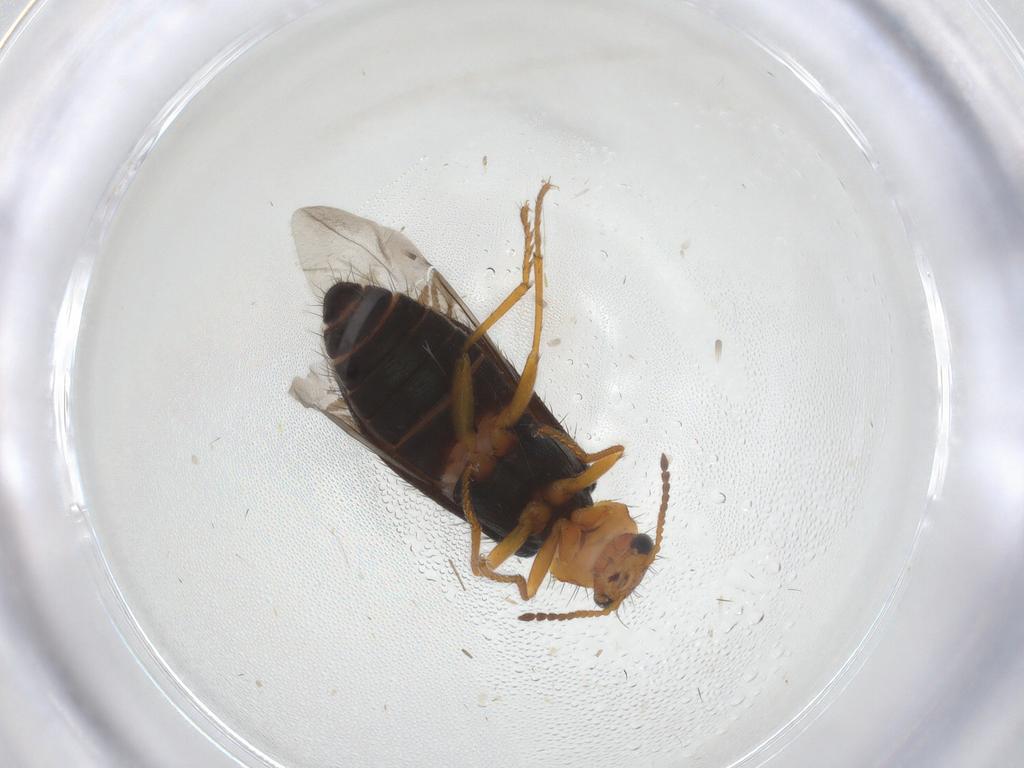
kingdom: Animalia
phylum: Arthropoda
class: Insecta
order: Coleoptera
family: Melyridae
